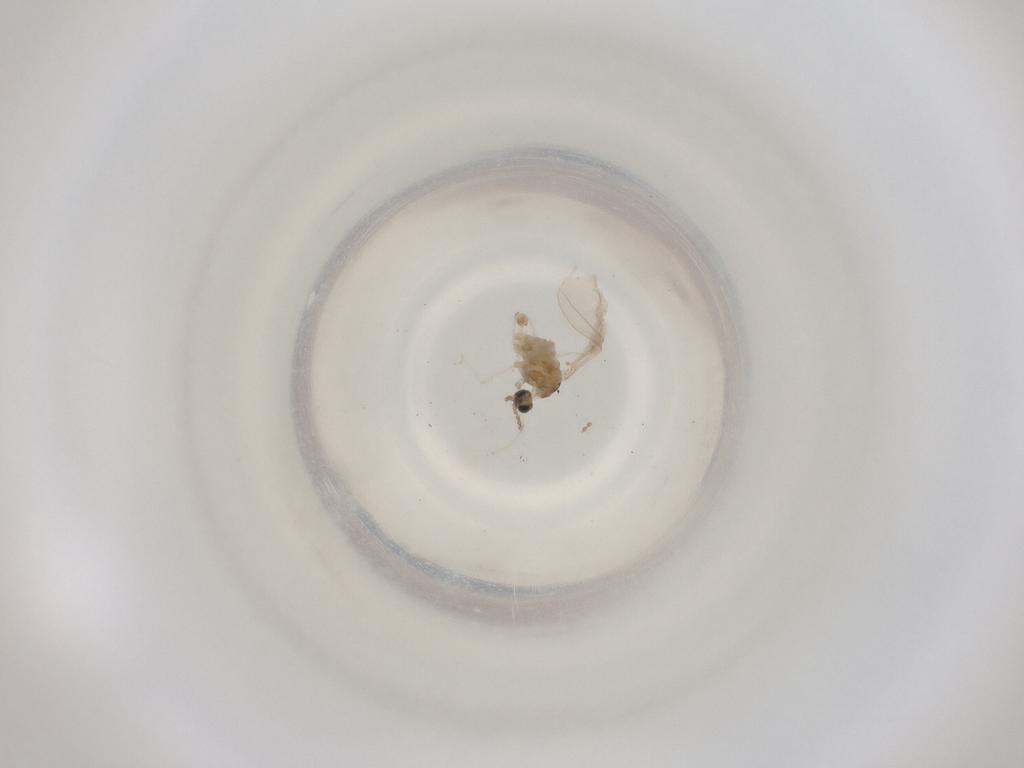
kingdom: Animalia
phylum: Arthropoda
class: Insecta
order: Diptera
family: Cecidomyiidae
